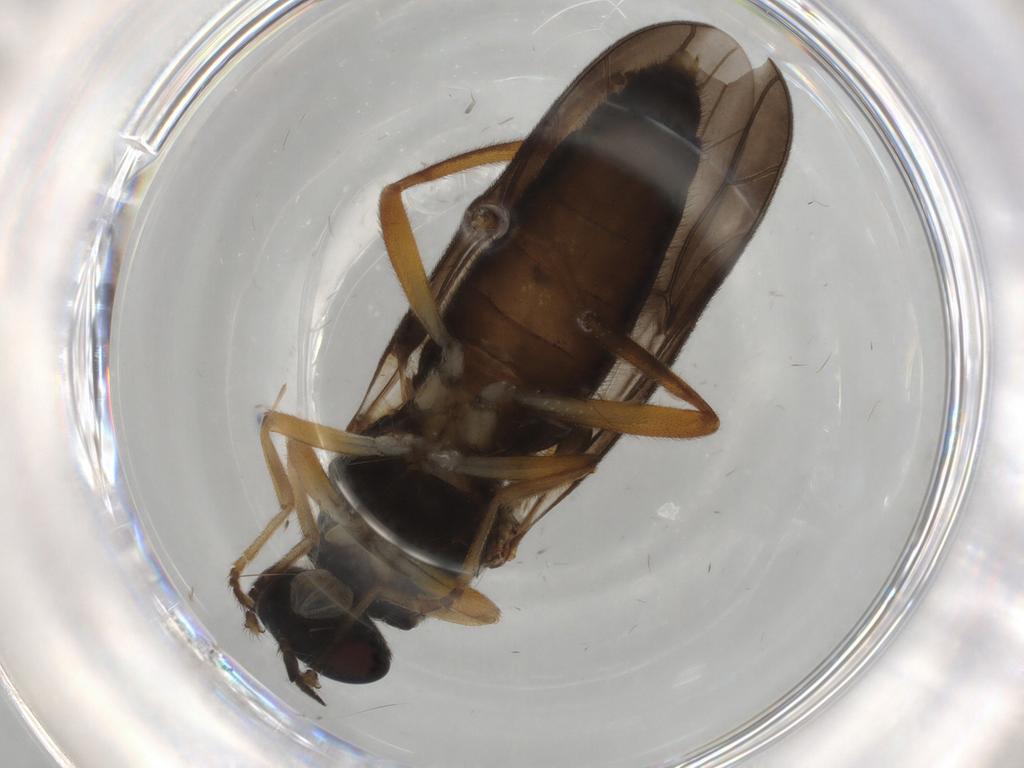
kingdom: Animalia
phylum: Arthropoda
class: Insecta
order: Diptera
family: Stratiomyidae
